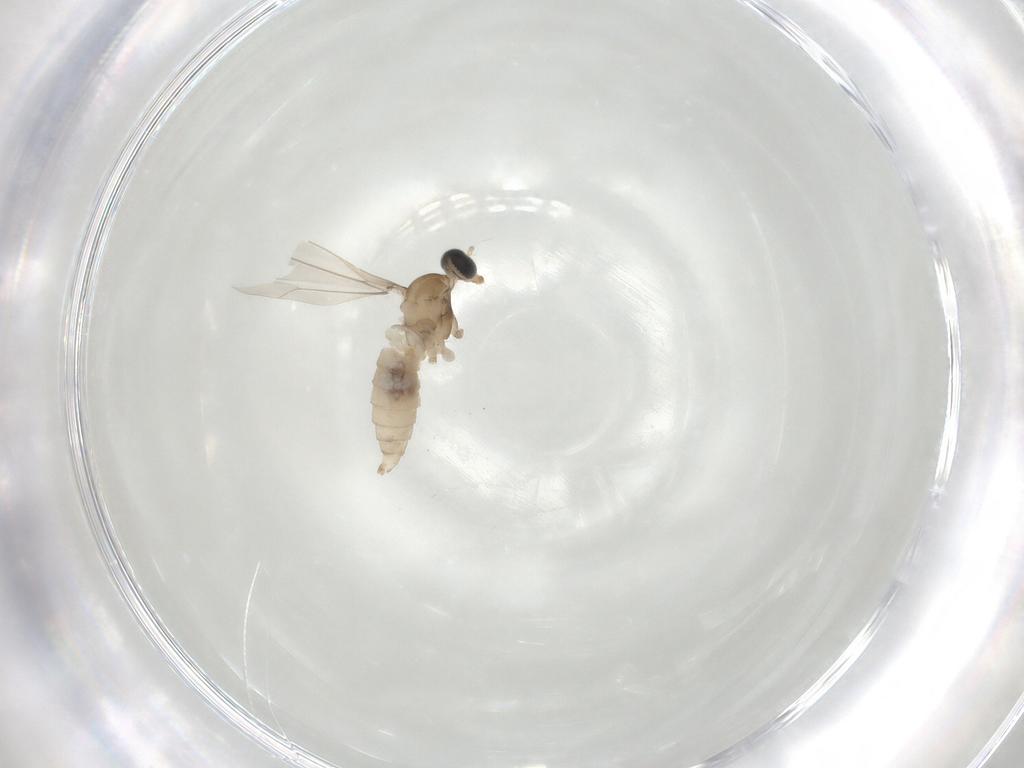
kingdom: Animalia
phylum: Arthropoda
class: Insecta
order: Diptera
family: Cecidomyiidae
